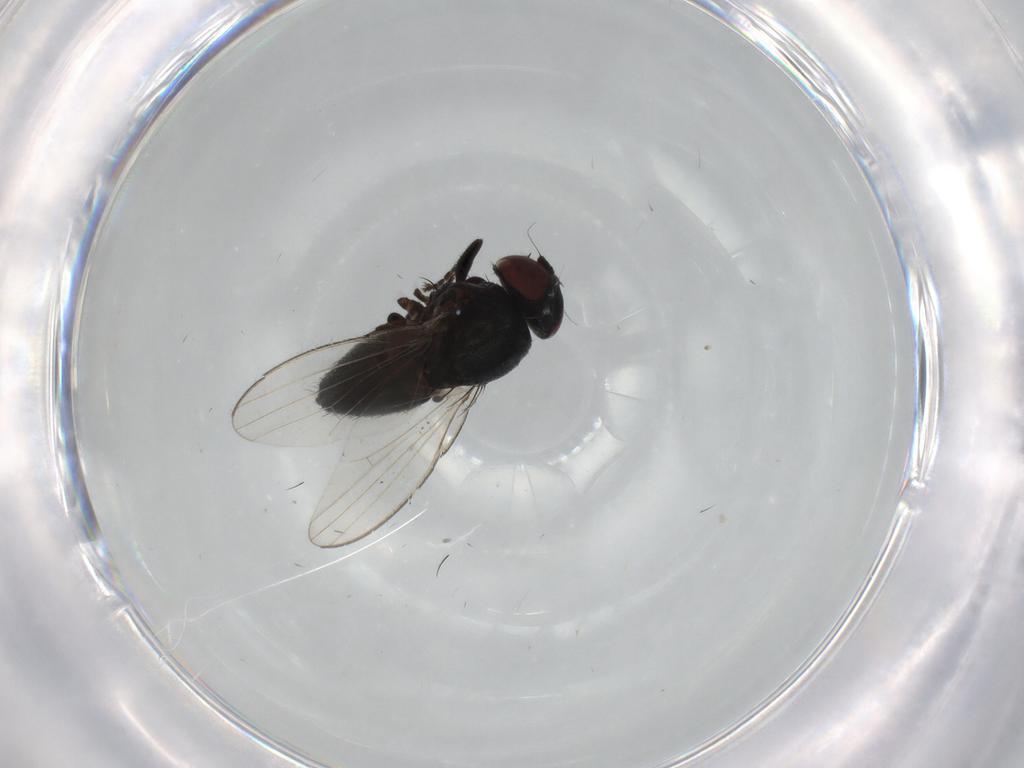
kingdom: Animalia
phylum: Arthropoda
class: Insecta
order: Diptera
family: Milichiidae
